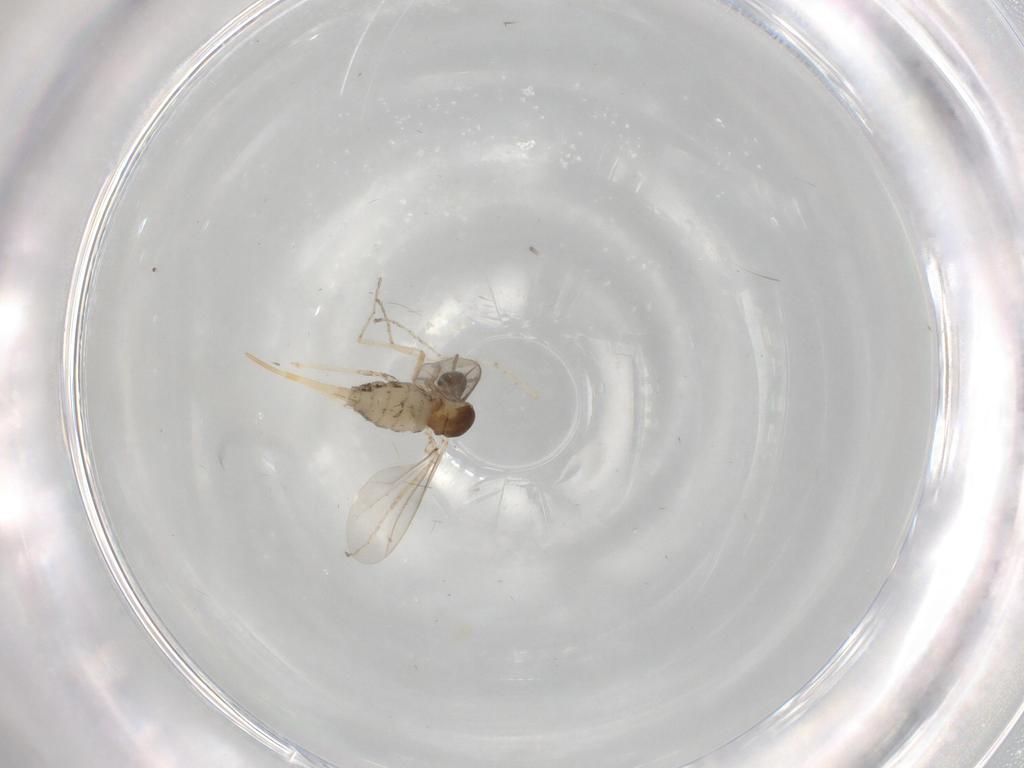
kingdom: Animalia
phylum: Arthropoda
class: Insecta
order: Diptera
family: Cecidomyiidae
